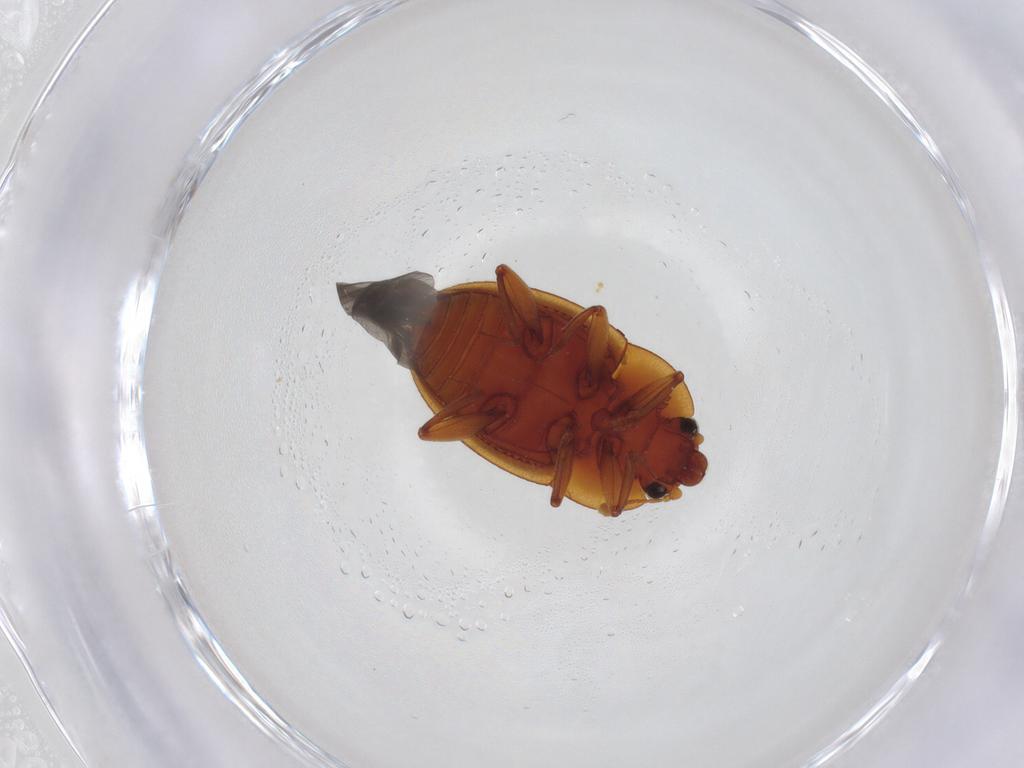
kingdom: Animalia
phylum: Arthropoda
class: Insecta
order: Coleoptera
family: Nitidulidae
